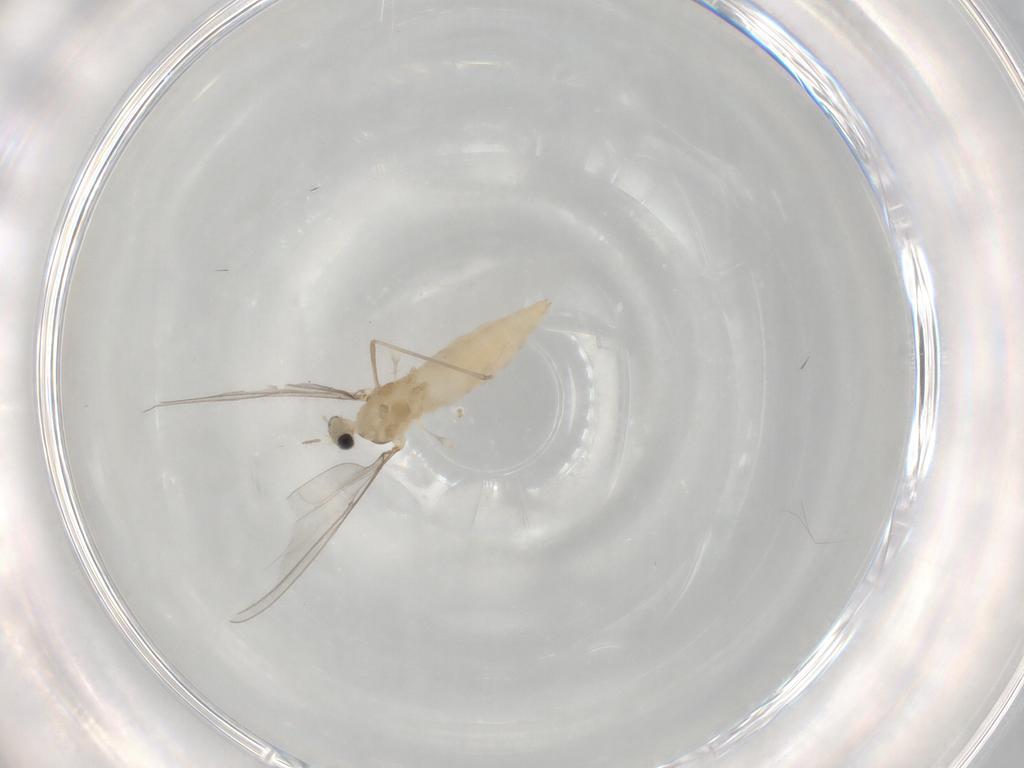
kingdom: Animalia
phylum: Arthropoda
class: Insecta
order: Diptera
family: Cecidomyiidae
